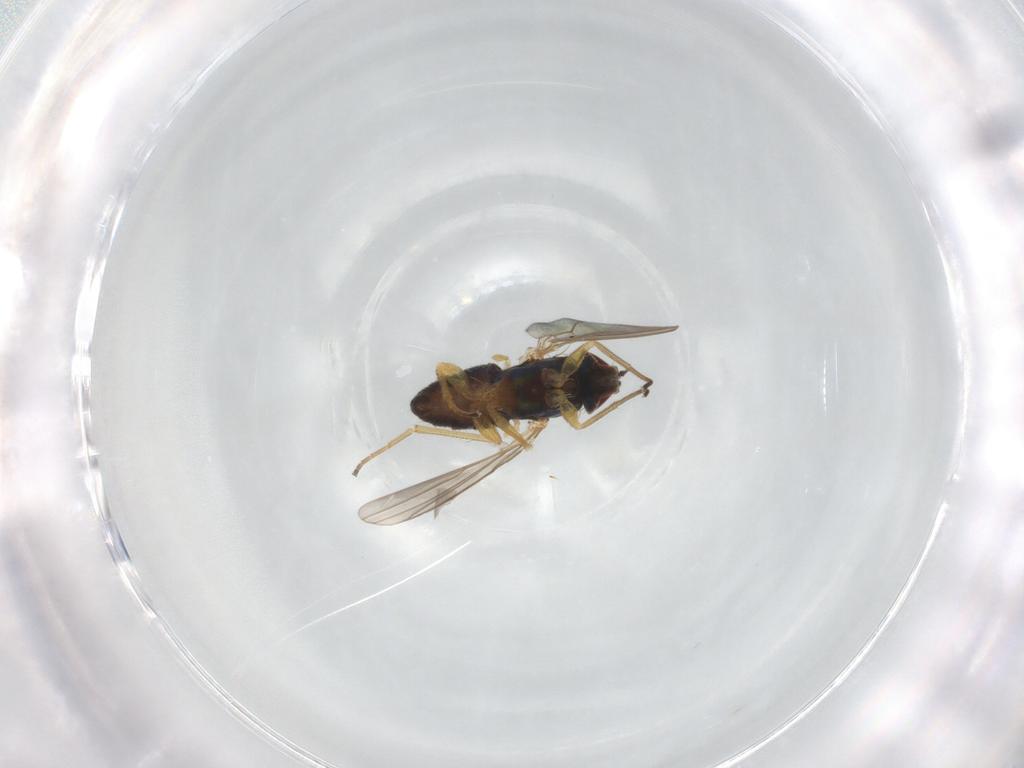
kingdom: Animalia
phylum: Arthropoda
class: Insecta
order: Diptera
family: Dolichopodidae
